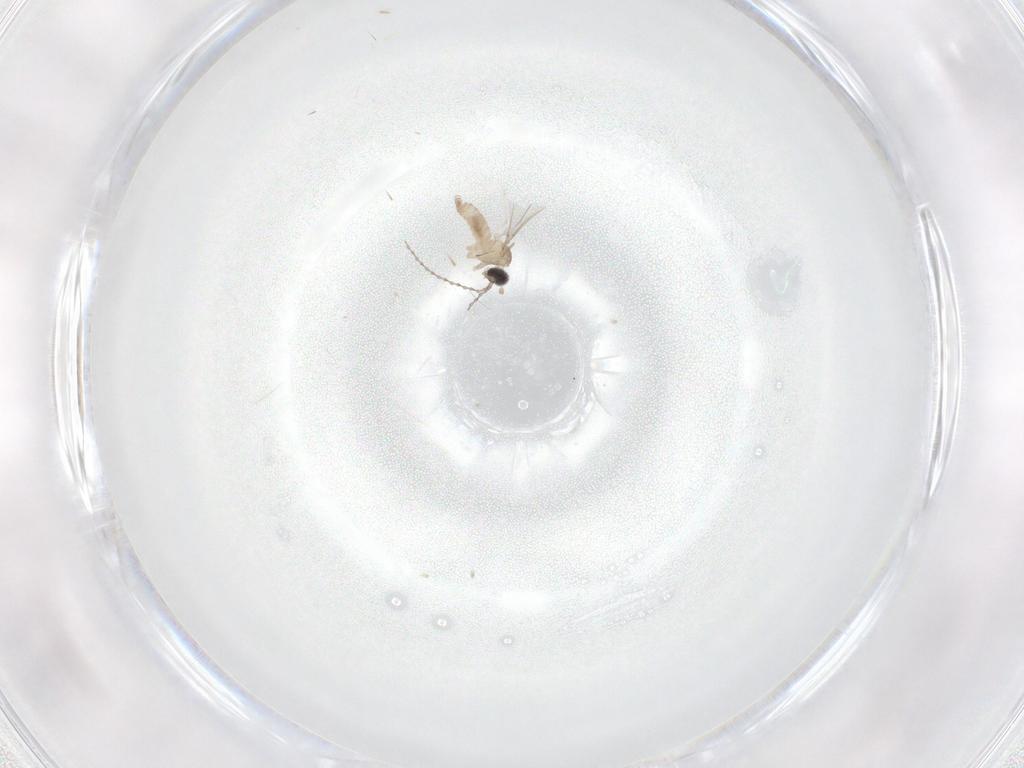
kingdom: Animalia
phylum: Arthropoda
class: Insecta
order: Diptera
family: Cecidomyiidae
